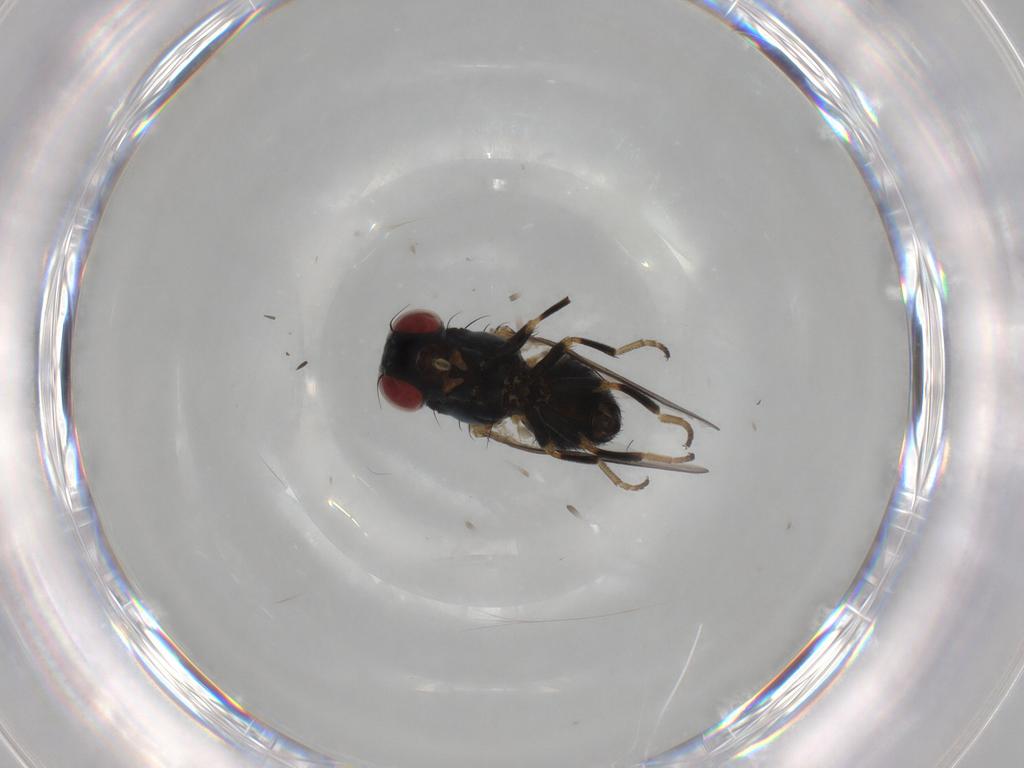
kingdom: Animalia
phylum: Arthropoda
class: Insecta
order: Diptera
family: Chamaemyiidae
